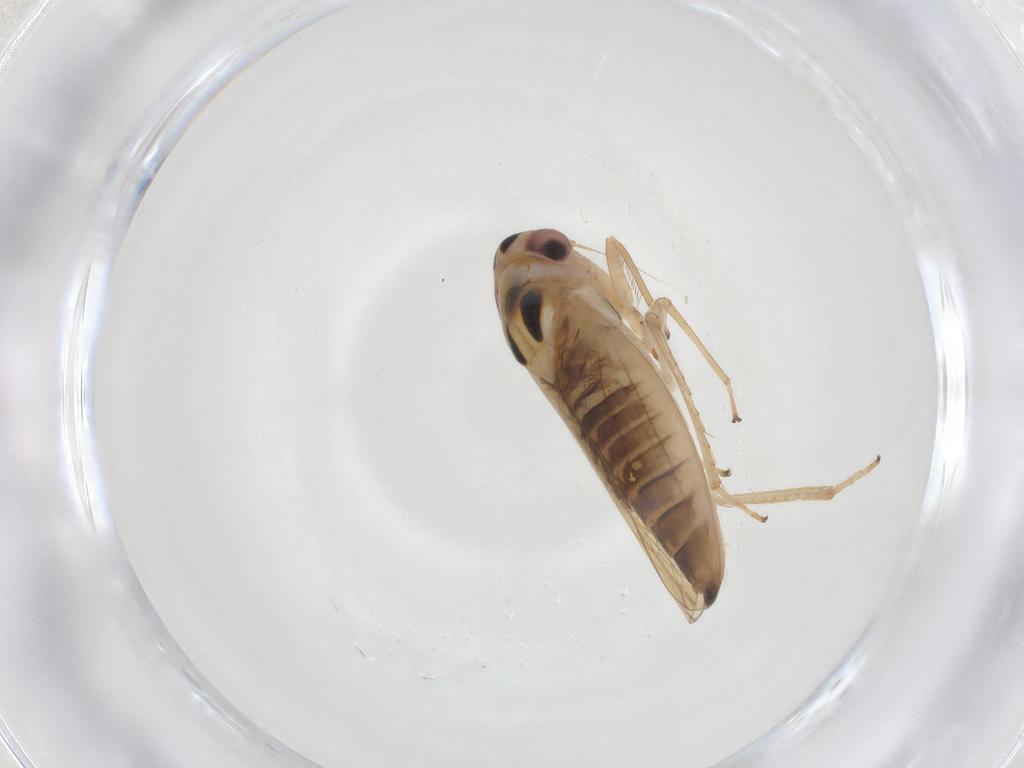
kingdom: Animalia
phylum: Arthropoda
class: Insecta
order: Hemiptera
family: Cicadellidae
